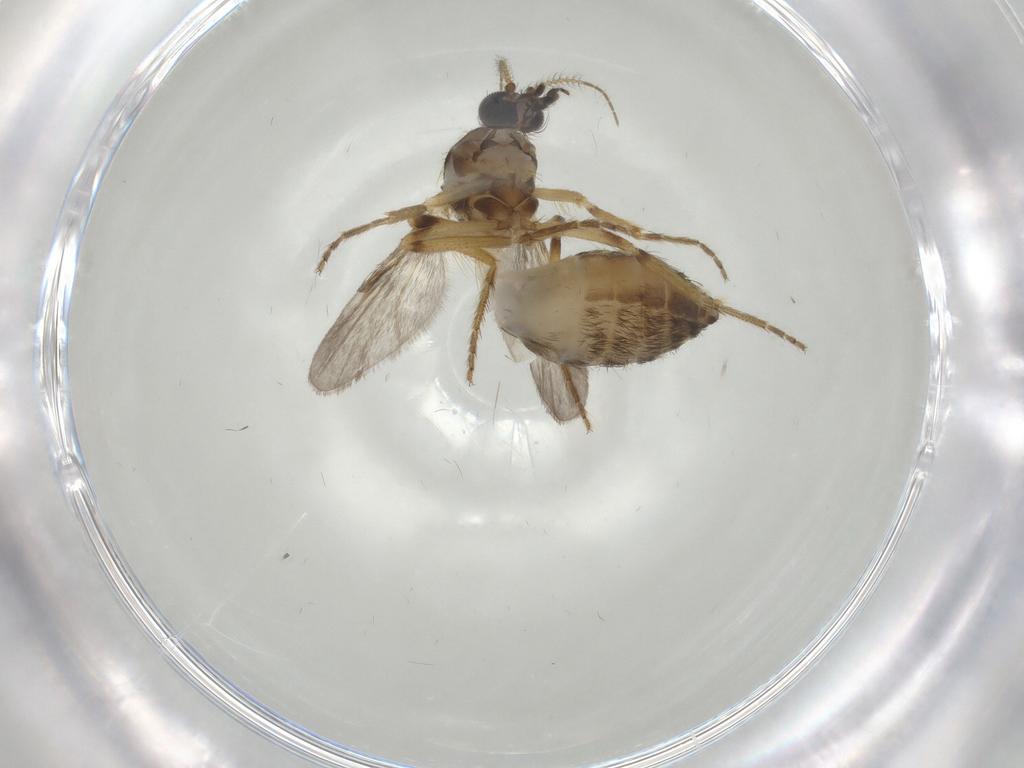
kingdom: Animalia
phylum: Arthropoda
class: Insecta
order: Diptera
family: Ceratopogonidae
